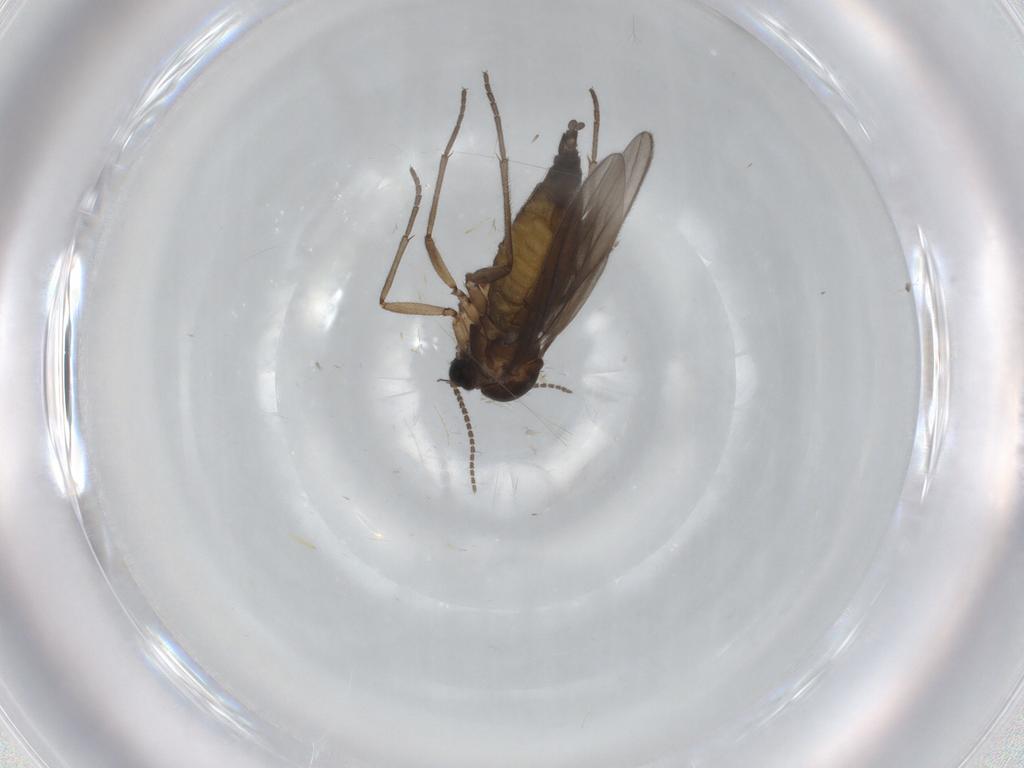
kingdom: Animalia
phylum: Arthropoda
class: Insecta
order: Diptera
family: Sciaridae
